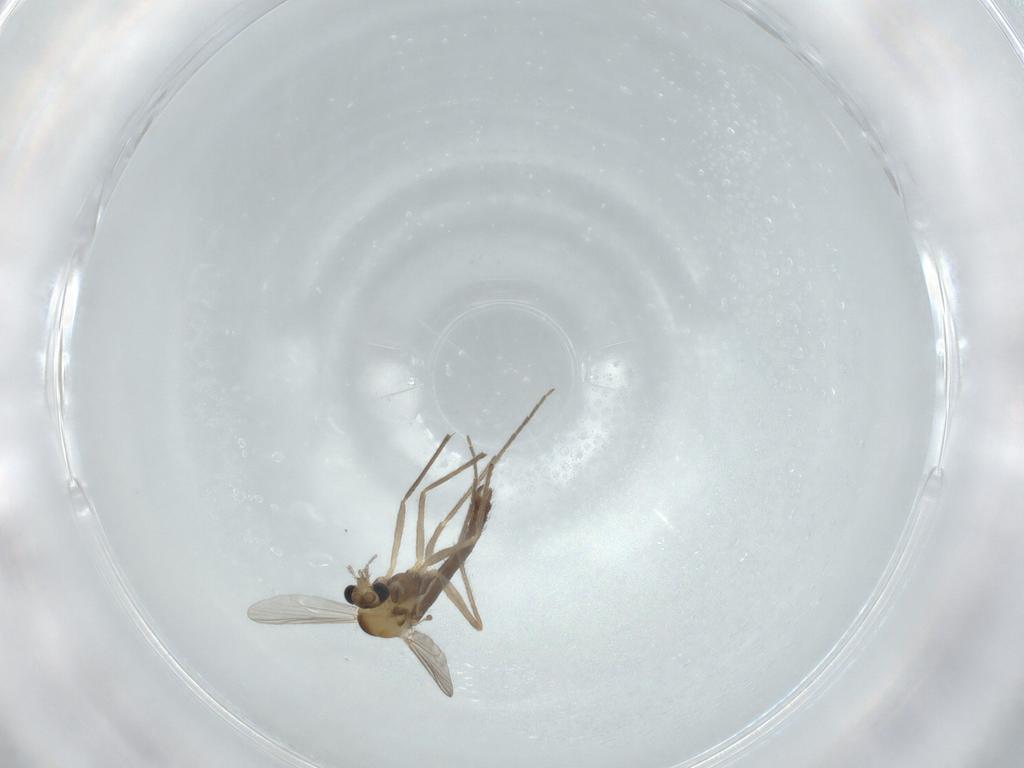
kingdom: Animalia
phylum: Arthropoda
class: Insecta
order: Diptera
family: Chironomidae
